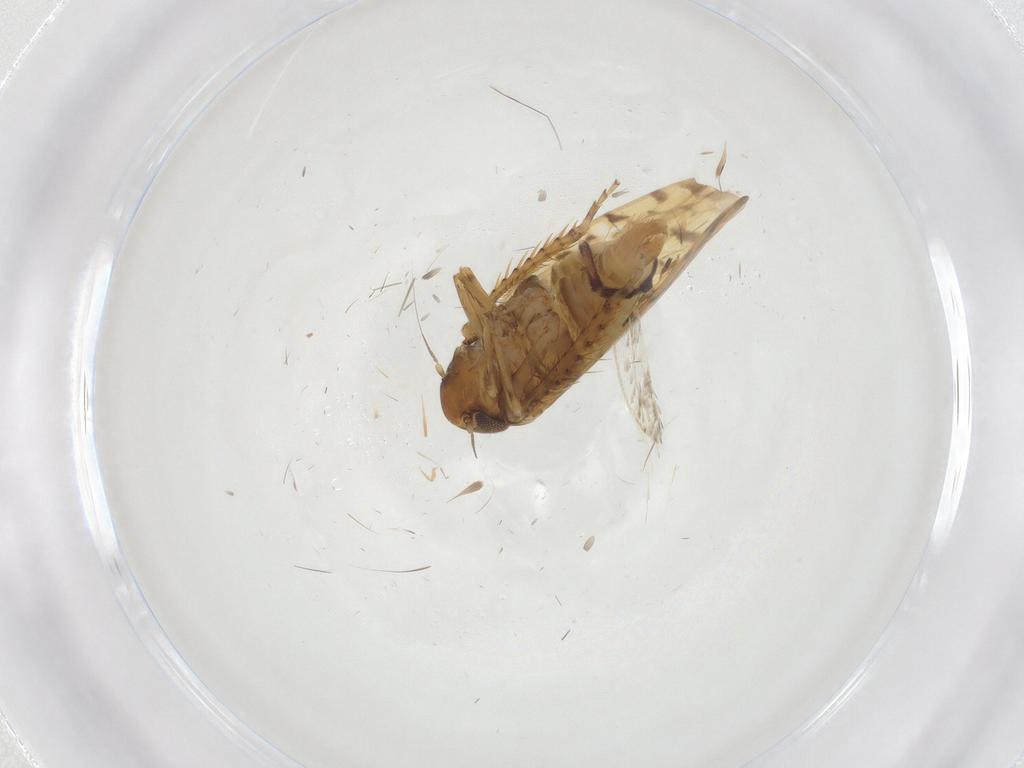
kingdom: Animalia
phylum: Arthropoda
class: Insecta
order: Hemiptera
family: Cicadellidae
